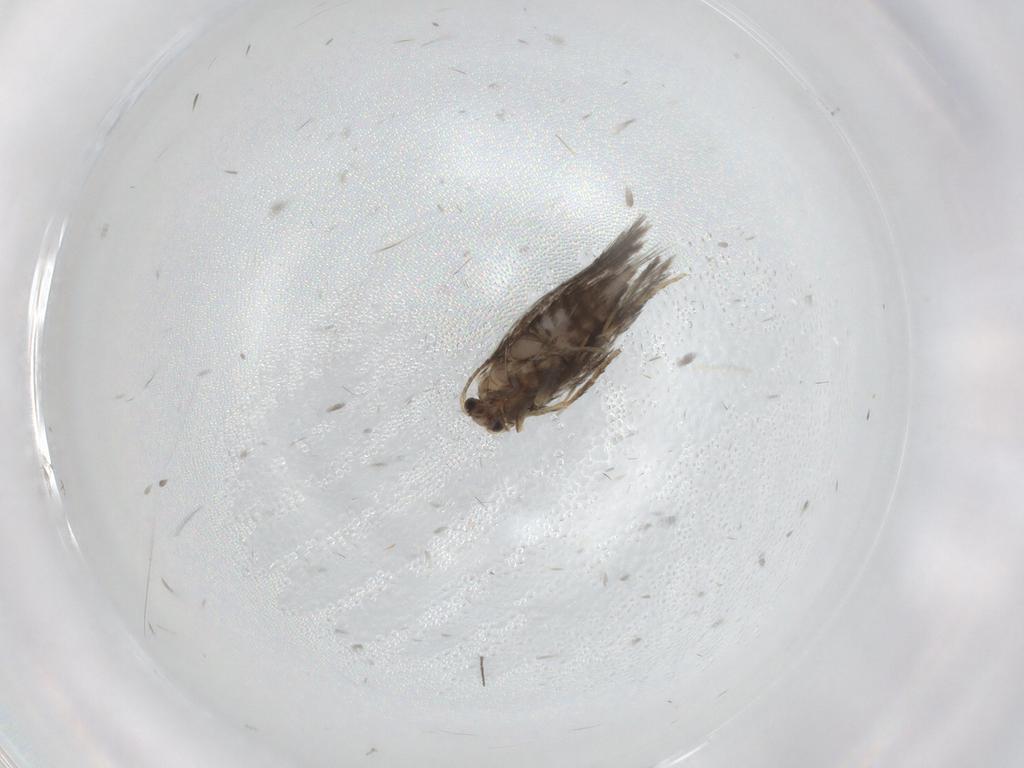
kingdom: Animalia
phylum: Arthropoda
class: Insecta
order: Lepidoptera
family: Nepticulidae
